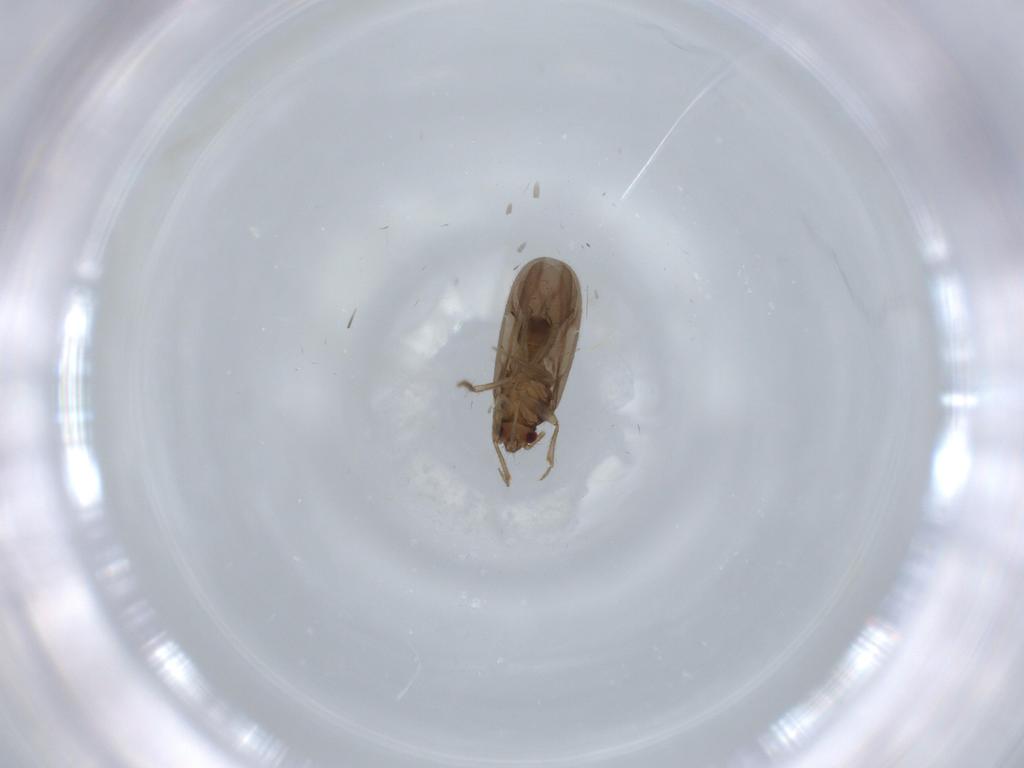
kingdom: Animalia
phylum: Arthropoda
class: Insecta
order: Hemiptera
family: Ceratocombidae
